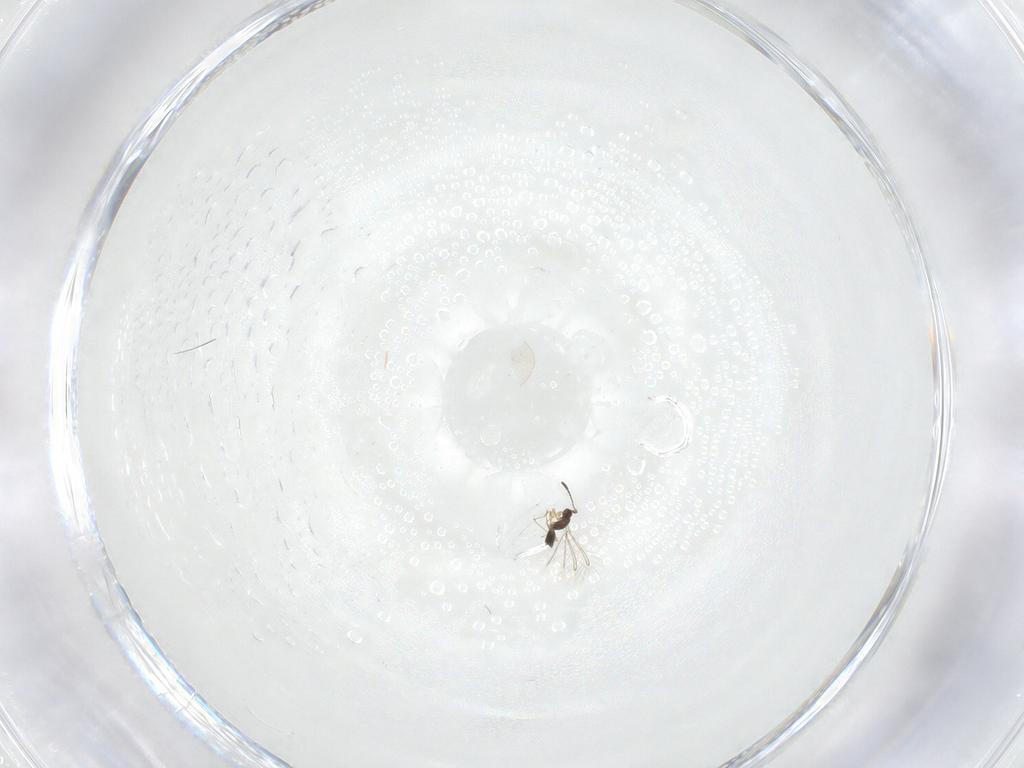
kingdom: Animalia
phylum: Arthropoda
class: Insecta
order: Hymenoptera
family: Mymaridae
